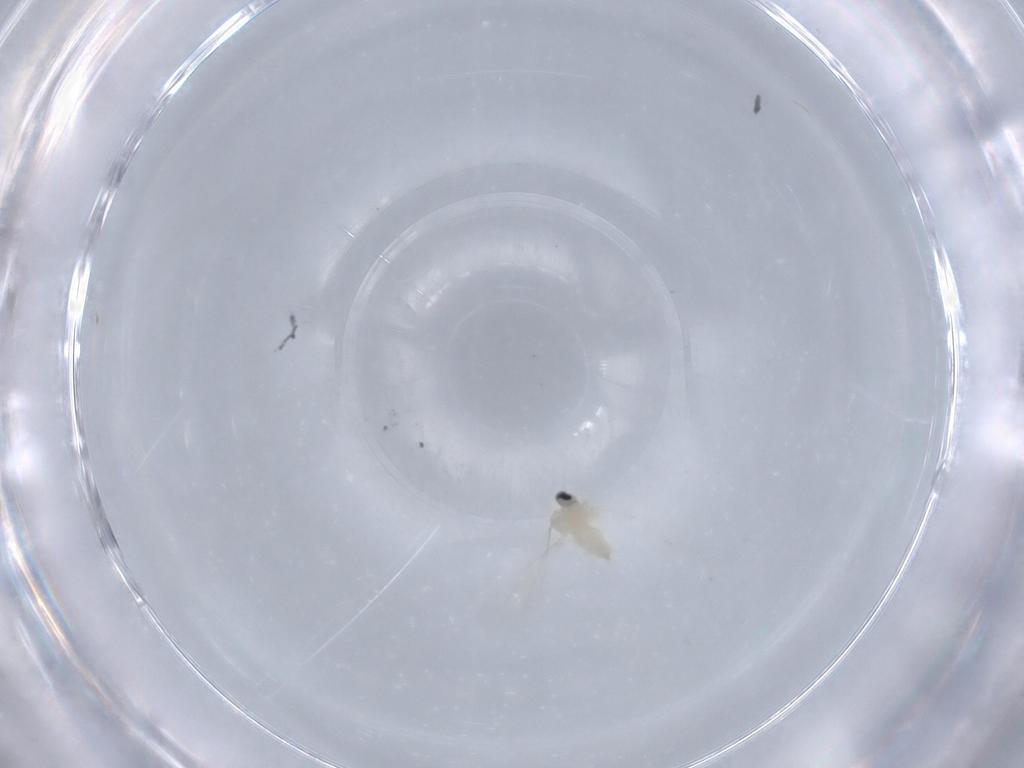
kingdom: Animalia
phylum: Arthropoda
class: Insecta
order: Diptera
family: Cecidomyiidae
